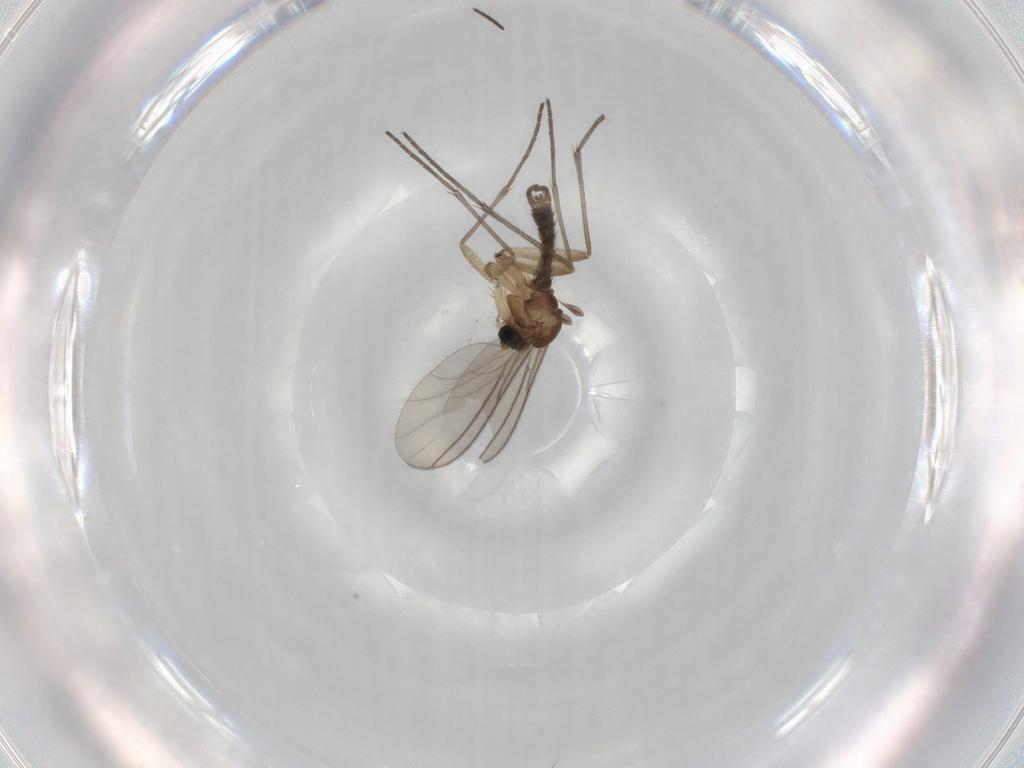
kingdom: Animalia
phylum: Arthropoda
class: Insecta
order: Diptera
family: Sciaridae
